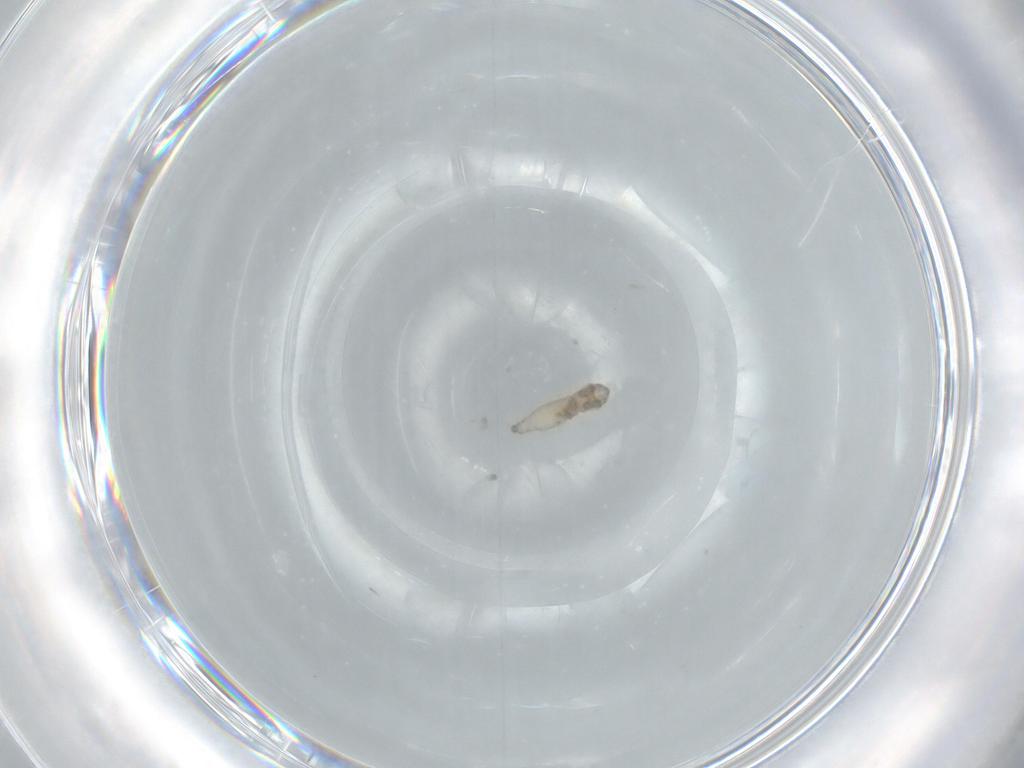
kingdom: Animalia
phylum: Arthropoda
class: Insecta
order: Diptera
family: Cecidomyiidae
